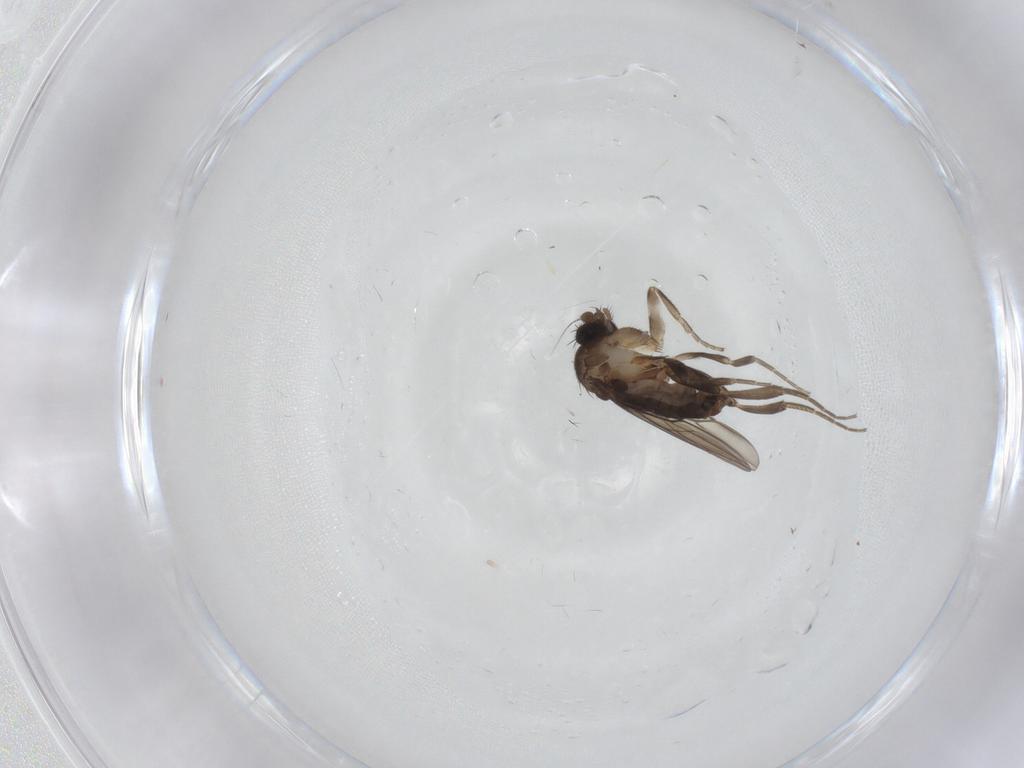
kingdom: Animalia
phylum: Arthropoda
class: Insecta
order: Diptera
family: Phoridae
